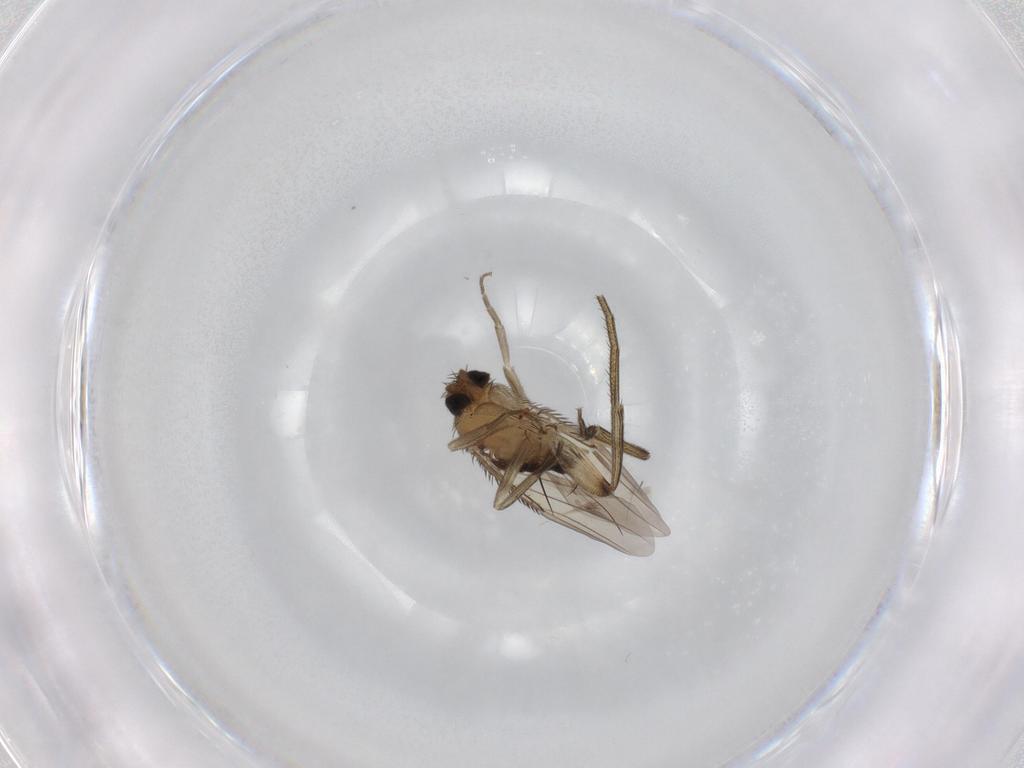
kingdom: Animalia
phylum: Arthropoda
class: Insecta
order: Diptera
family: Phoridae
